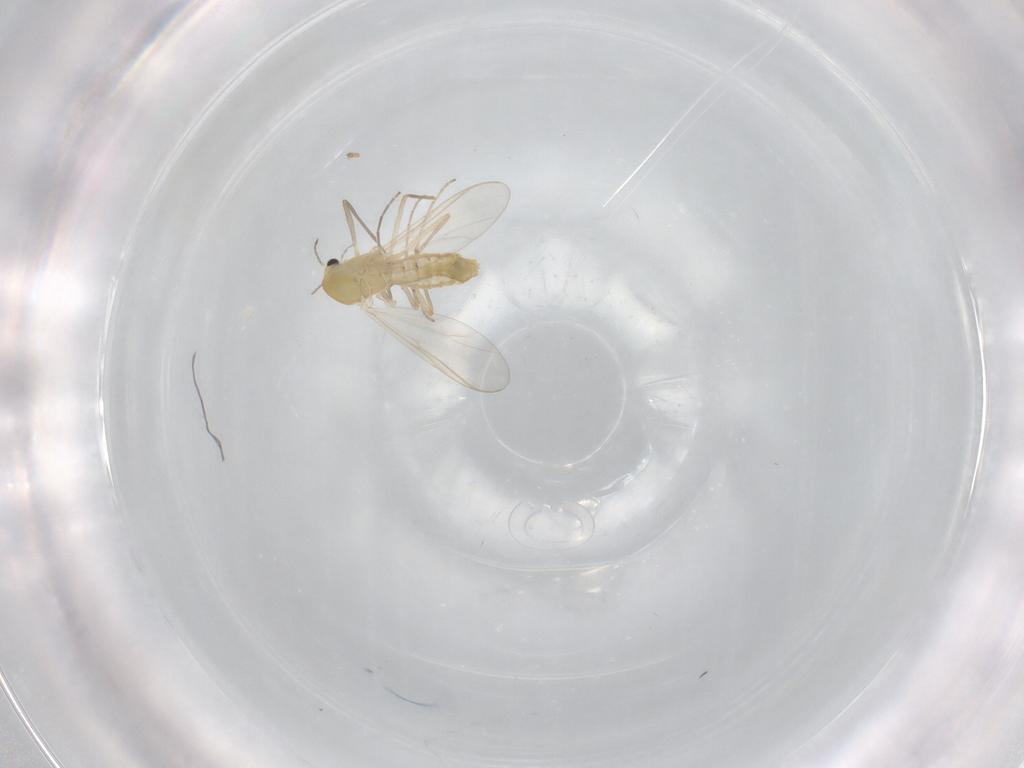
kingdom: Animalia
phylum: Arthropoda
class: Insecta
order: Diptera
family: Chironomidae
